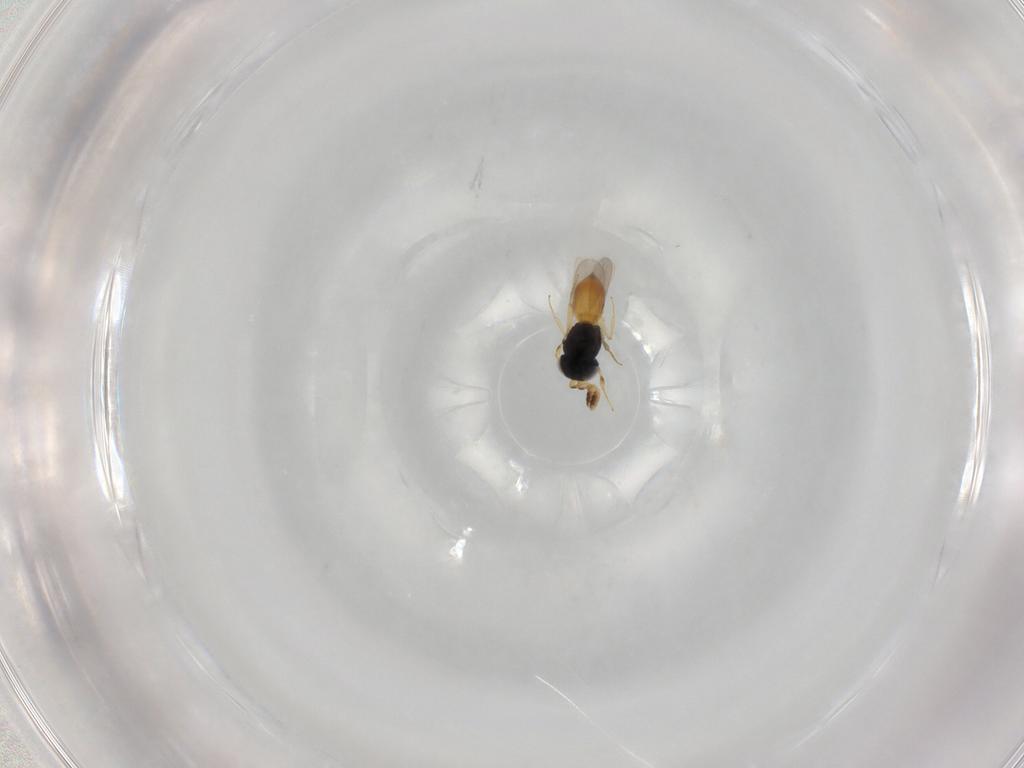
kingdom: Animalia
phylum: Arthropoda
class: Insecta
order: Hymenoptera
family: Scelionidae
